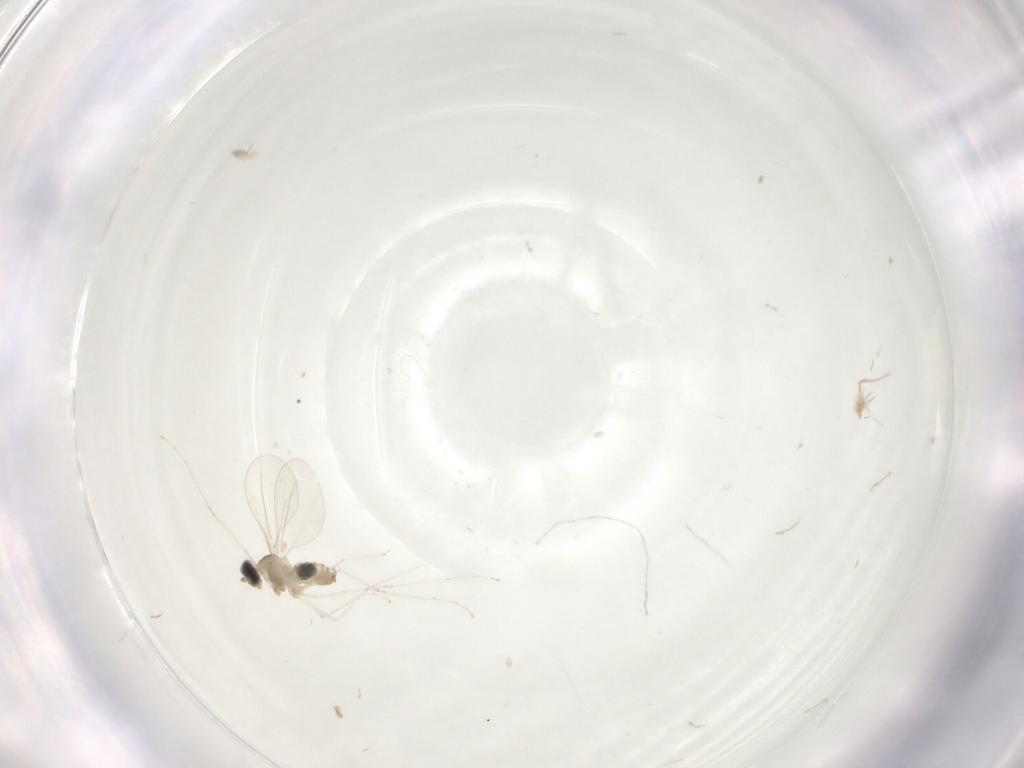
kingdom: Animalia
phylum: Arthropoda
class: Insecta
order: Diptera
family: Cecidomyiidae
